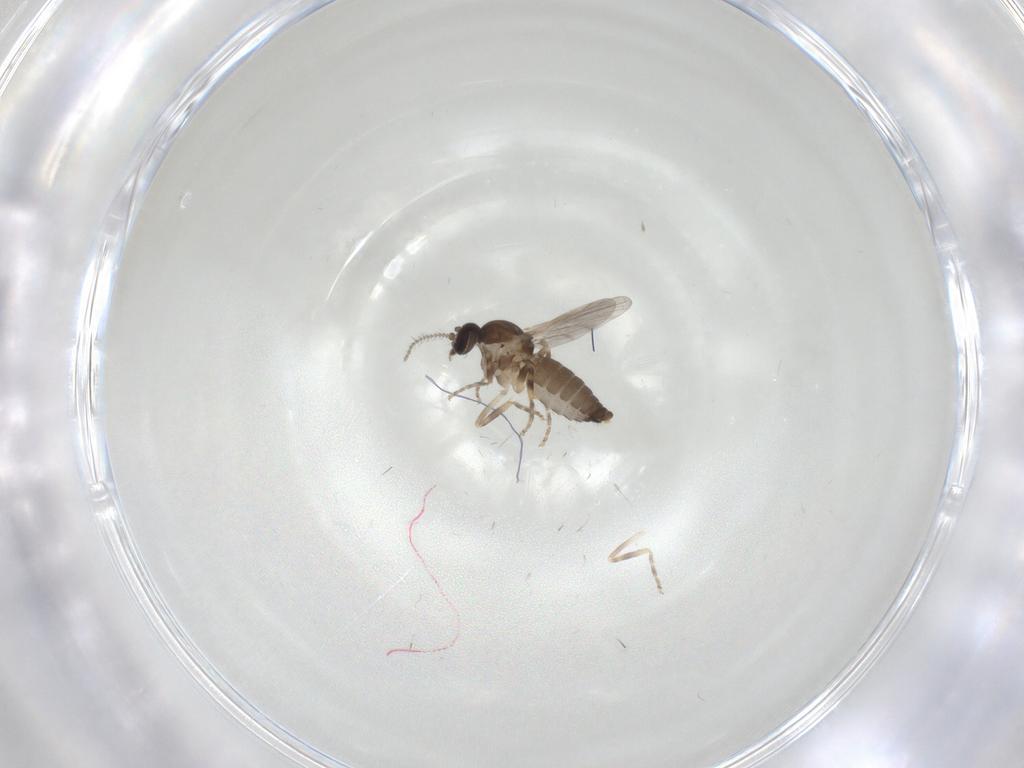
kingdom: Animalia
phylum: Arthropoda
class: Insecta
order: Diptera
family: Ceratopogonidae
